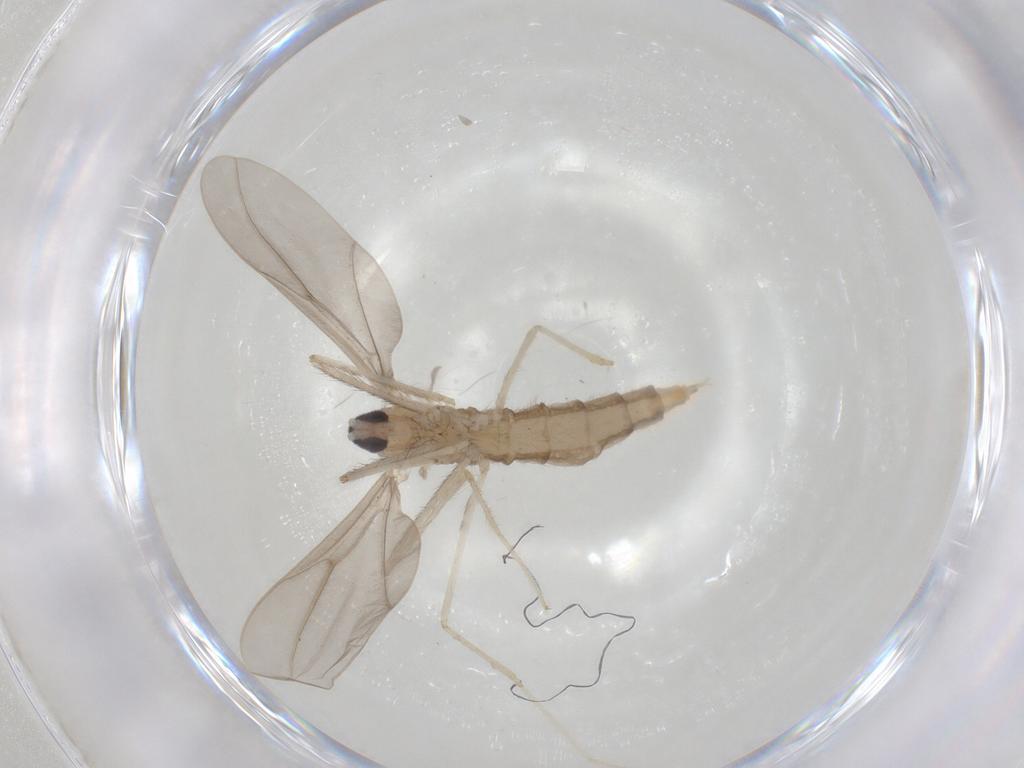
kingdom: Animalia
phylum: Arthropoda
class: Insecta
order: Diptera
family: Cecidomyiidae
